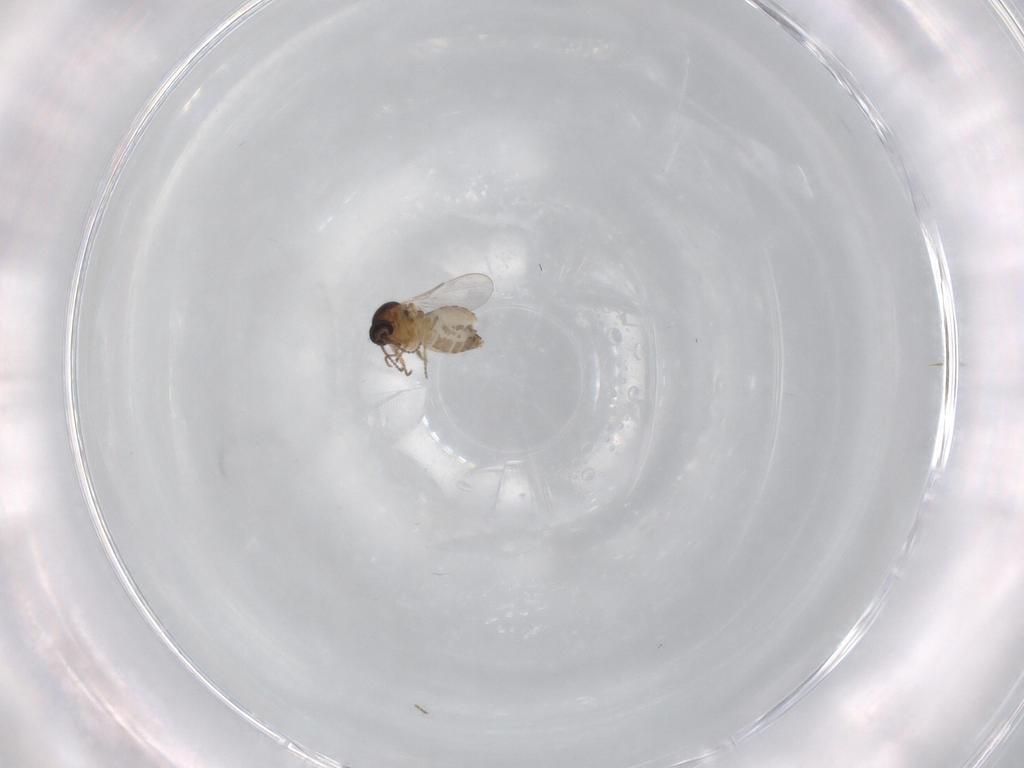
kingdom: Animalia
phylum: Arthropoda
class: Insecta
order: Diptera
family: Ceratopogonidae
